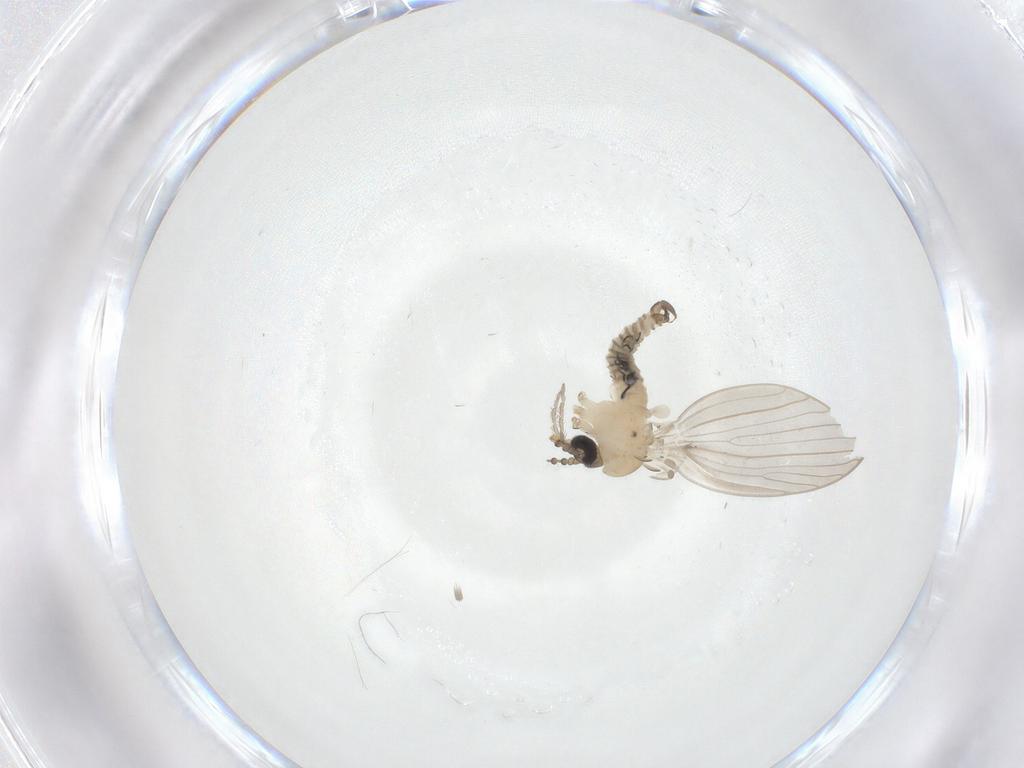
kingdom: Animalia
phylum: Arthropoda
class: Insecta
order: Diptera
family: Psychodidae
